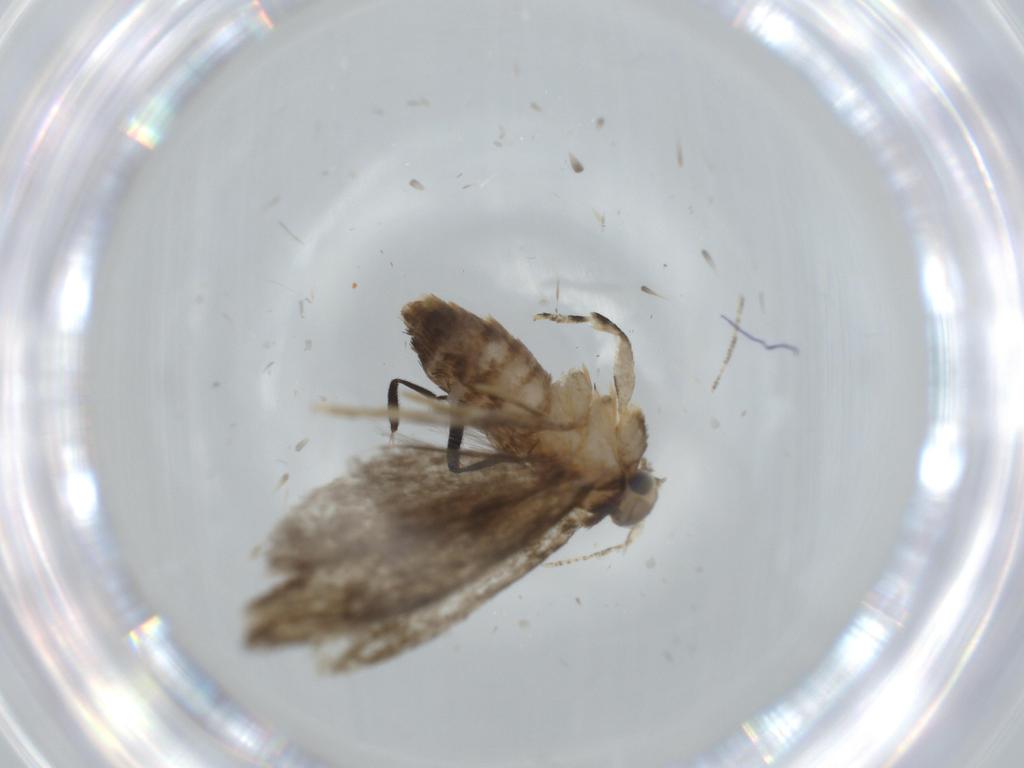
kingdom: Animalia
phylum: Arthropoda
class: Insecta
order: Lepidoptera
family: Tineidae
